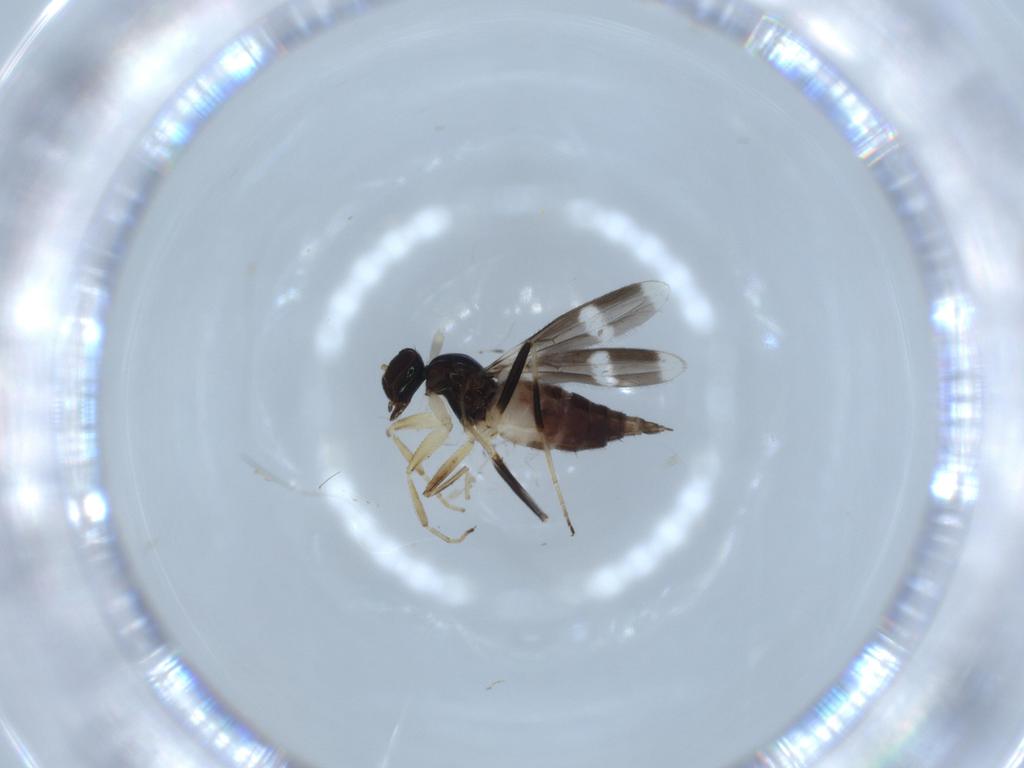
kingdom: Animalia
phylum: Arthropoda
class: Insecta
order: Diptera
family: Hybotidae
